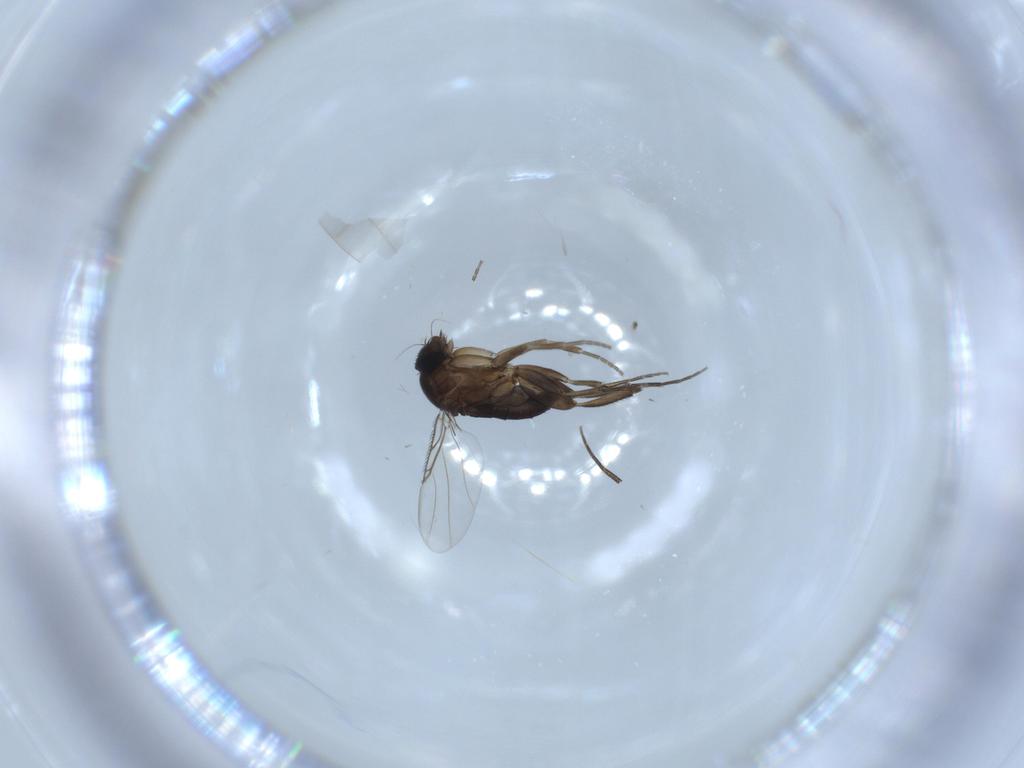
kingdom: Animalia
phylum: Arthropoda
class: Insecta
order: Diptera
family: Phoridae
